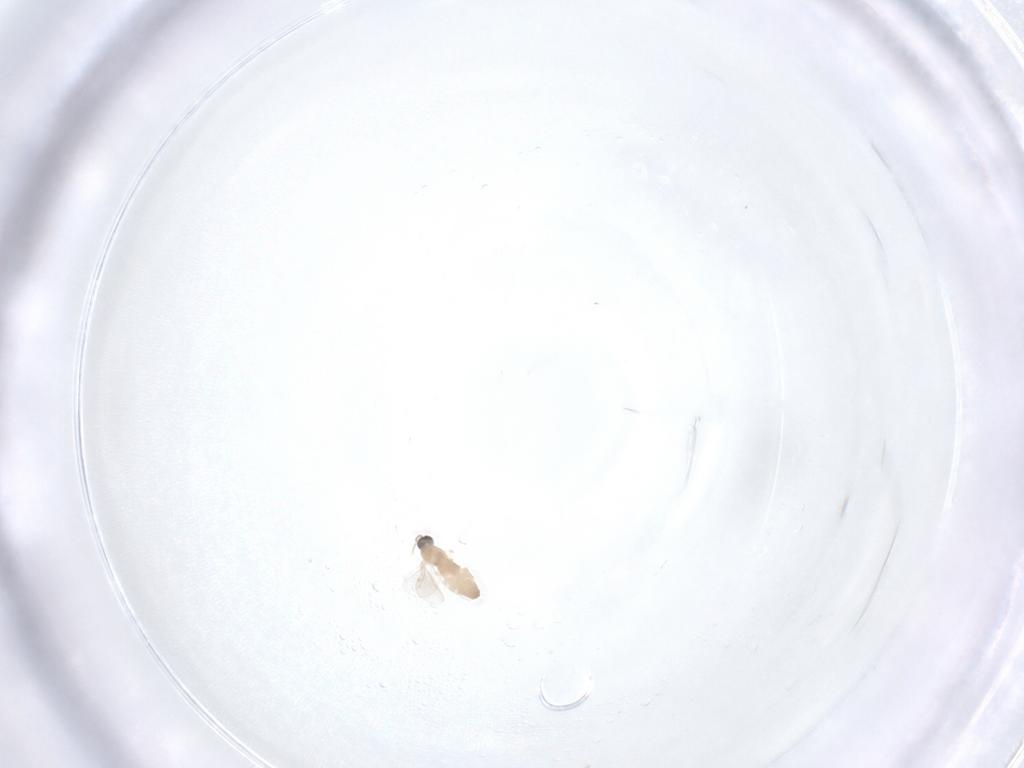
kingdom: Animalia
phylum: Arthropoda
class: Insecta
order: Diptera
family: Cecidomyiidae
